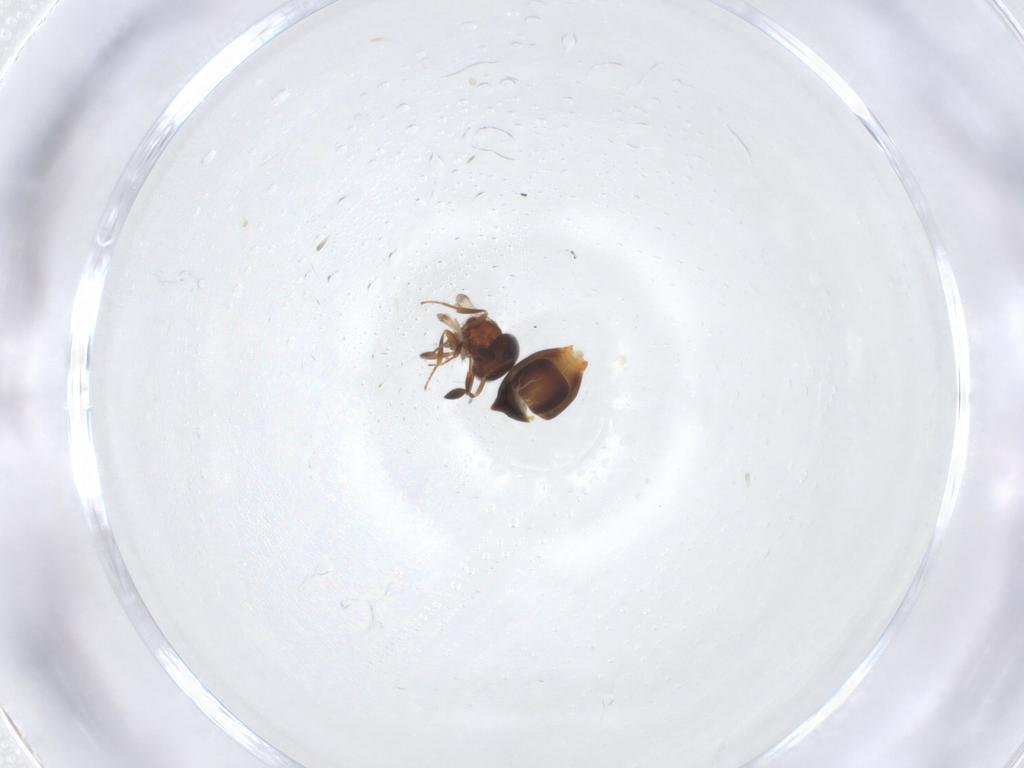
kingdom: Animalia
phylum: Arthropoda
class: Insecta
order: Hymenoptera
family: Scelionidae
